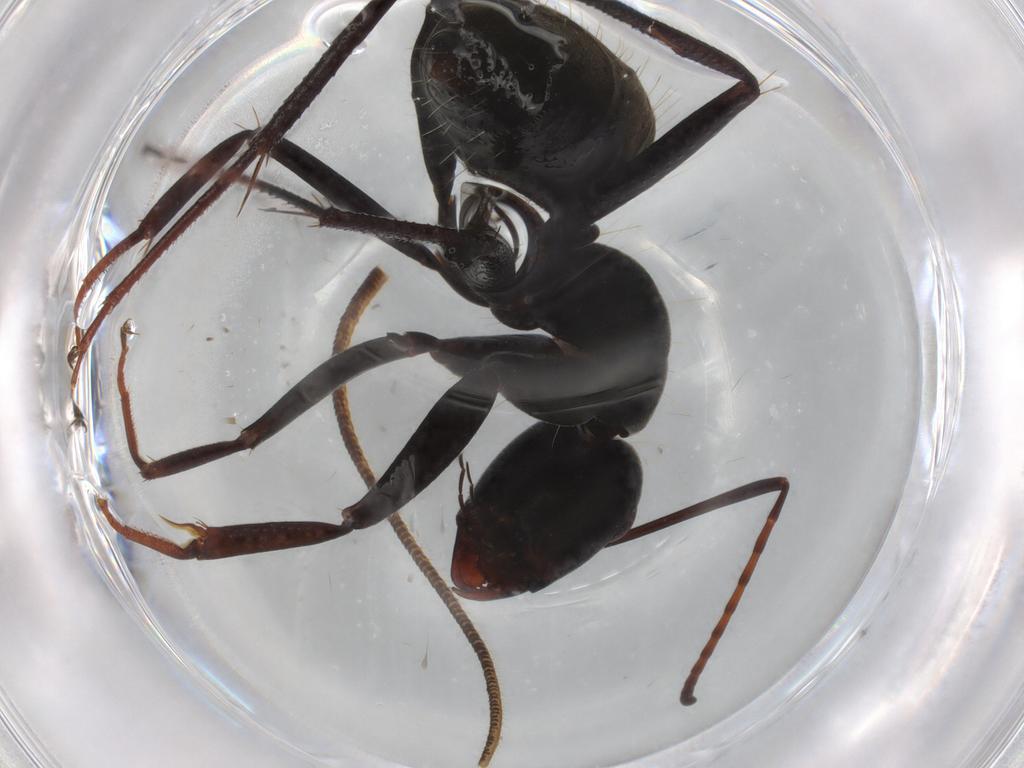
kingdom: Animalia
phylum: Arthropoda
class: Insecta
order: Hymenoptera
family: Formicidae
